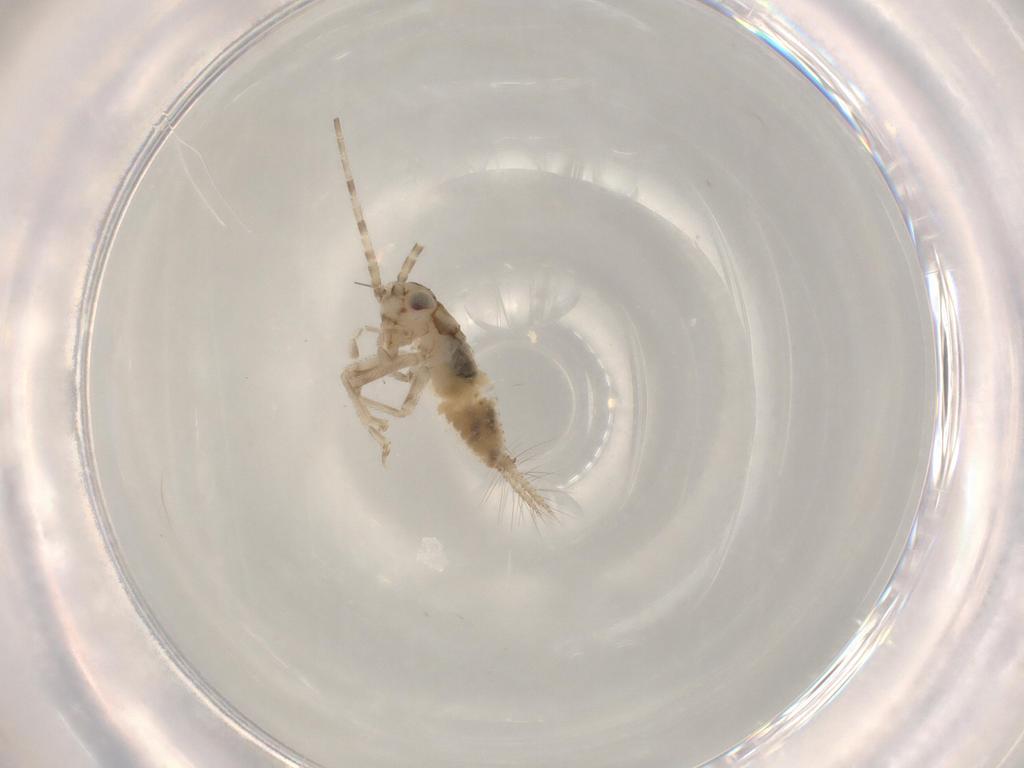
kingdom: Animalia
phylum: Arthropoda
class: Insecta
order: Orthoptera
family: Trigonidiidae
